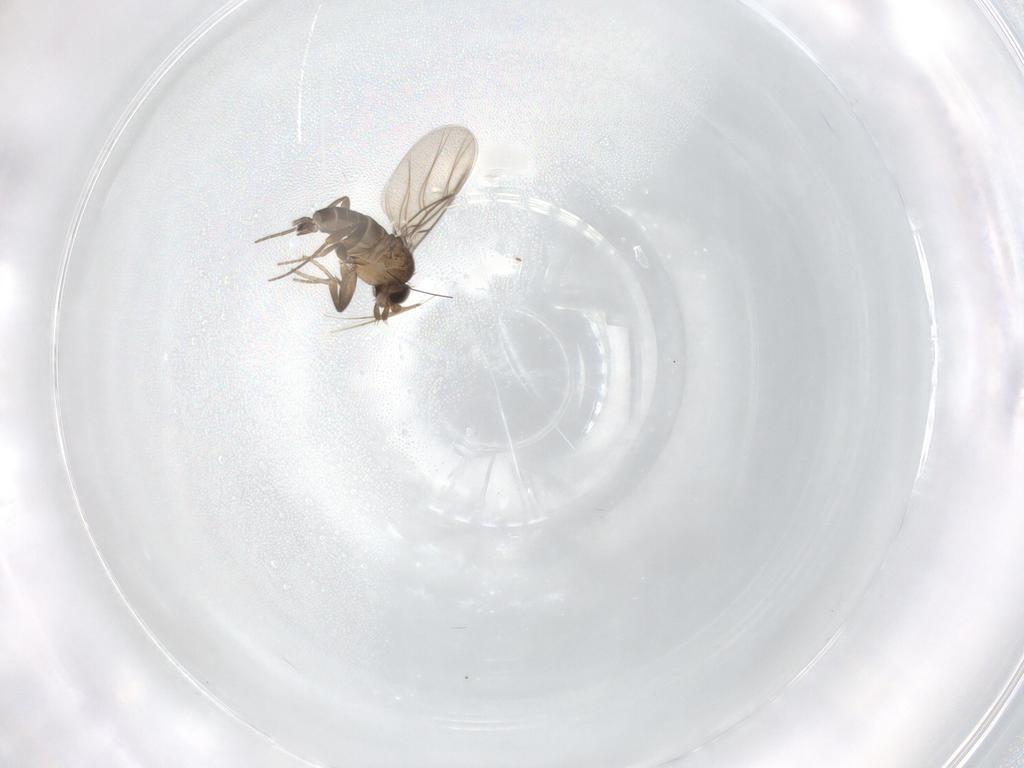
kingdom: Animalia
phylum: Arthropoda
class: Insecta
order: Diptera
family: Phoridae
